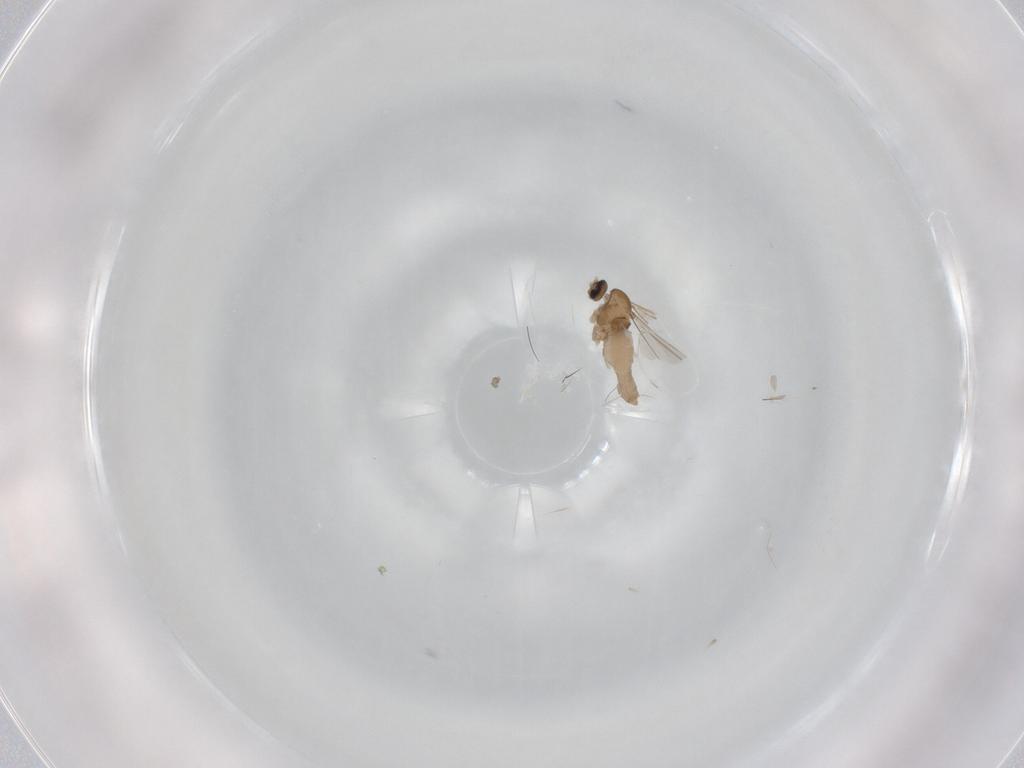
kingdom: Animalia
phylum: Arthropoda
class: Insecta
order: Diptera
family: Cecidomyiidae
